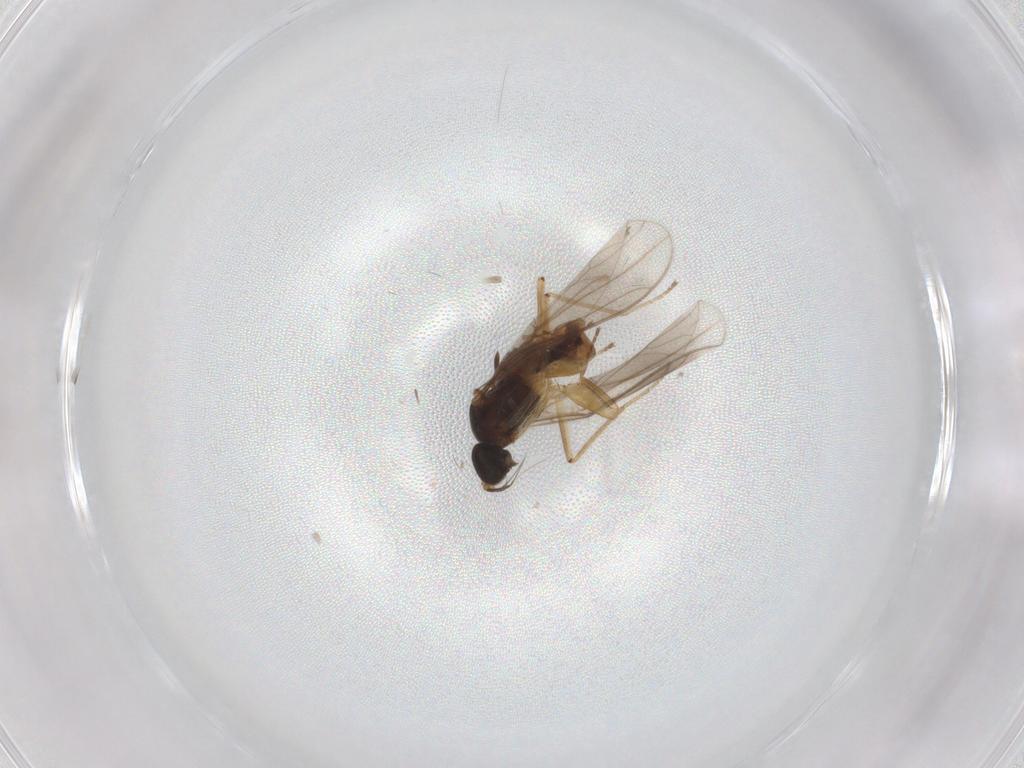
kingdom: Animalia
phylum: Arthropoda
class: Insecta
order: Diptera
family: Empididae
